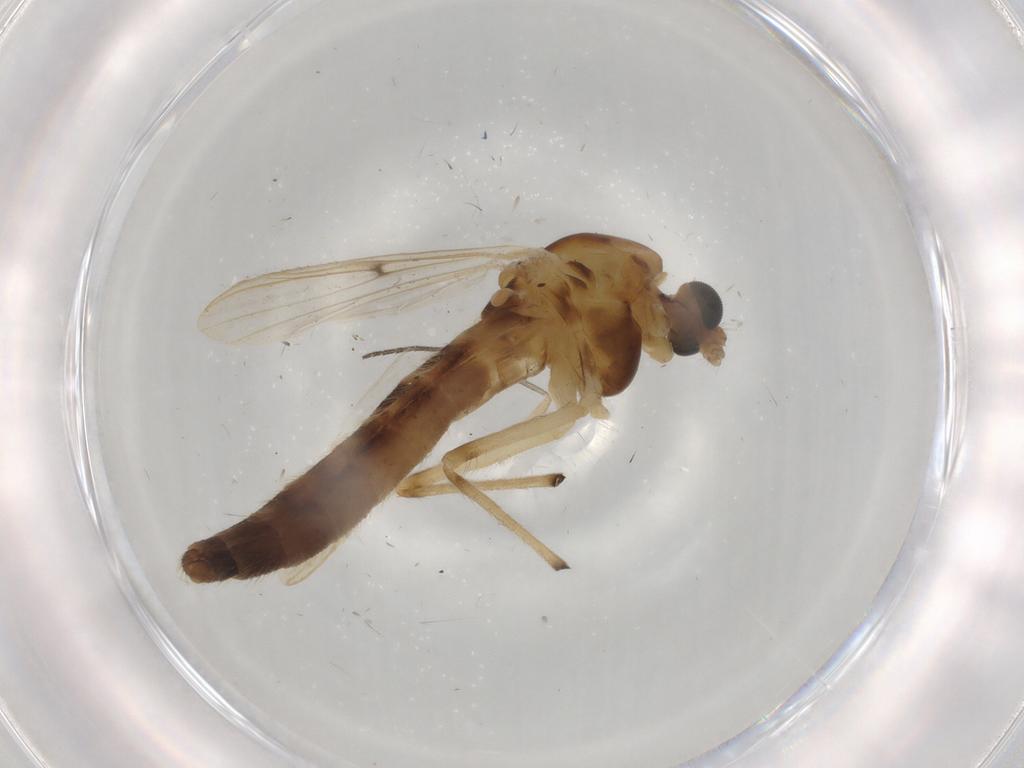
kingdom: Animalia
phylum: Arthropoda
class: Insecta
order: Diptera
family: Chironomidae
